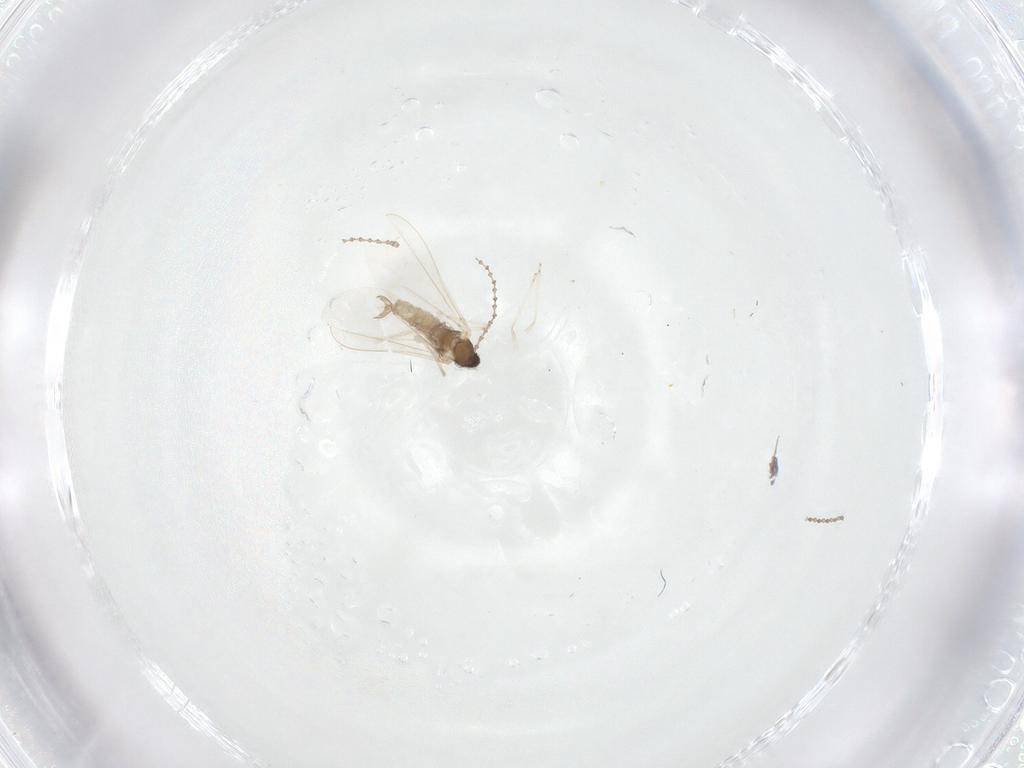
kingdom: Animalia
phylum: Arthropoda
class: Insecta
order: Diptera
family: Cecidomyiidae
